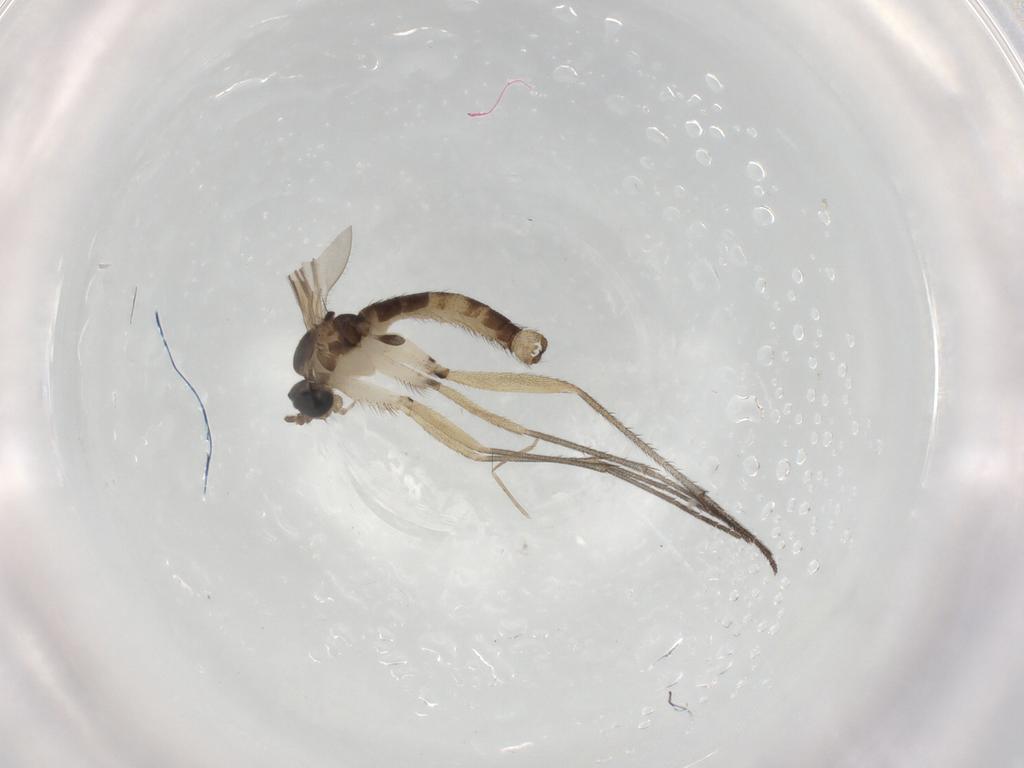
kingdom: Animalia
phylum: Arthropoda
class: Insecta
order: Diptera
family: Sciaridae
